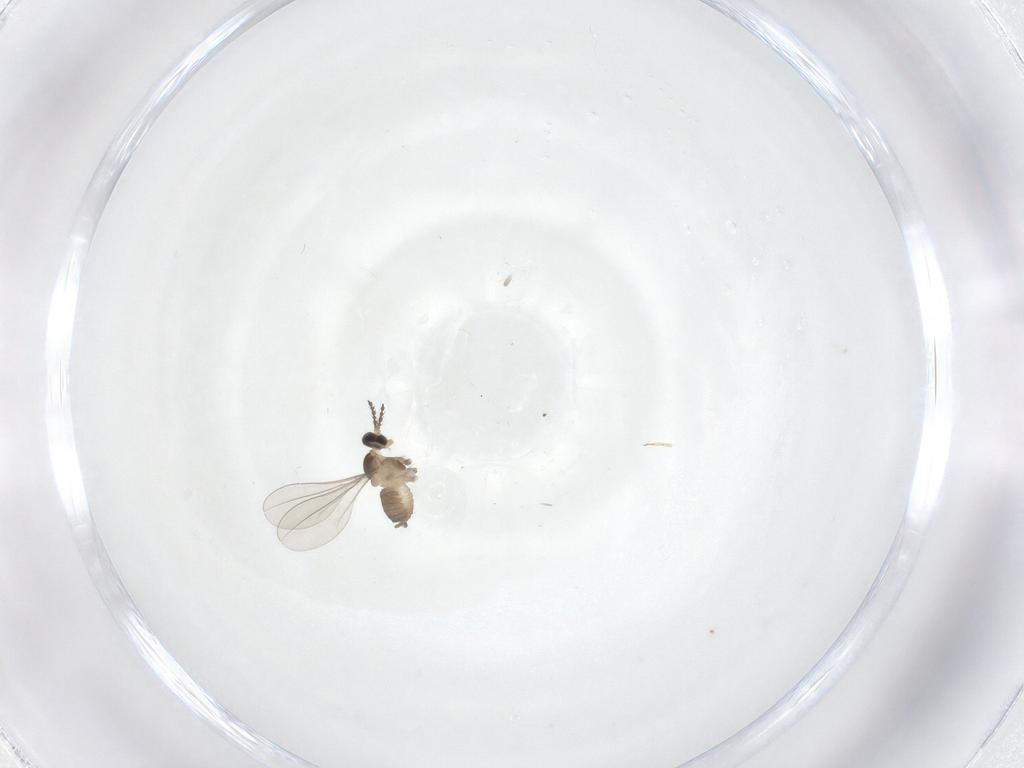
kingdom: Animalia
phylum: Arthropoda
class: Insecta
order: Diptera
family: Cecidomyiidae
